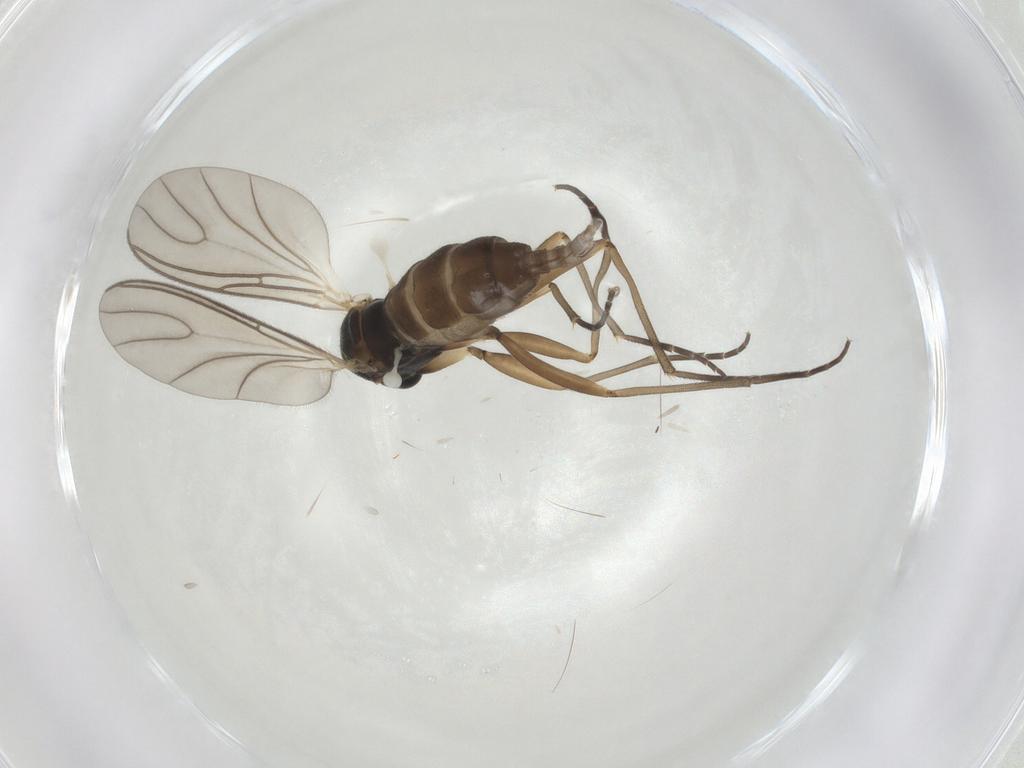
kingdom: Animalia
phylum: Arthropoda
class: Insecta
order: Diptera
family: Sciaridae
